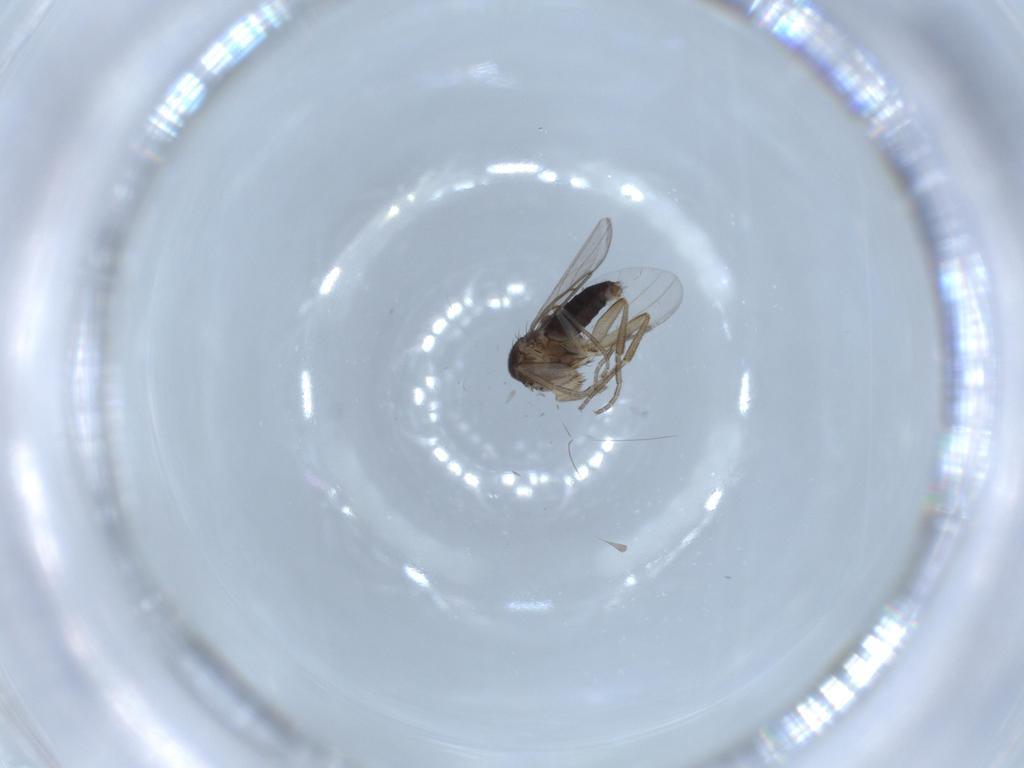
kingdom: Animalia
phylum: Arthropoda
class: Insecta
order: Diptera
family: Phoridae
